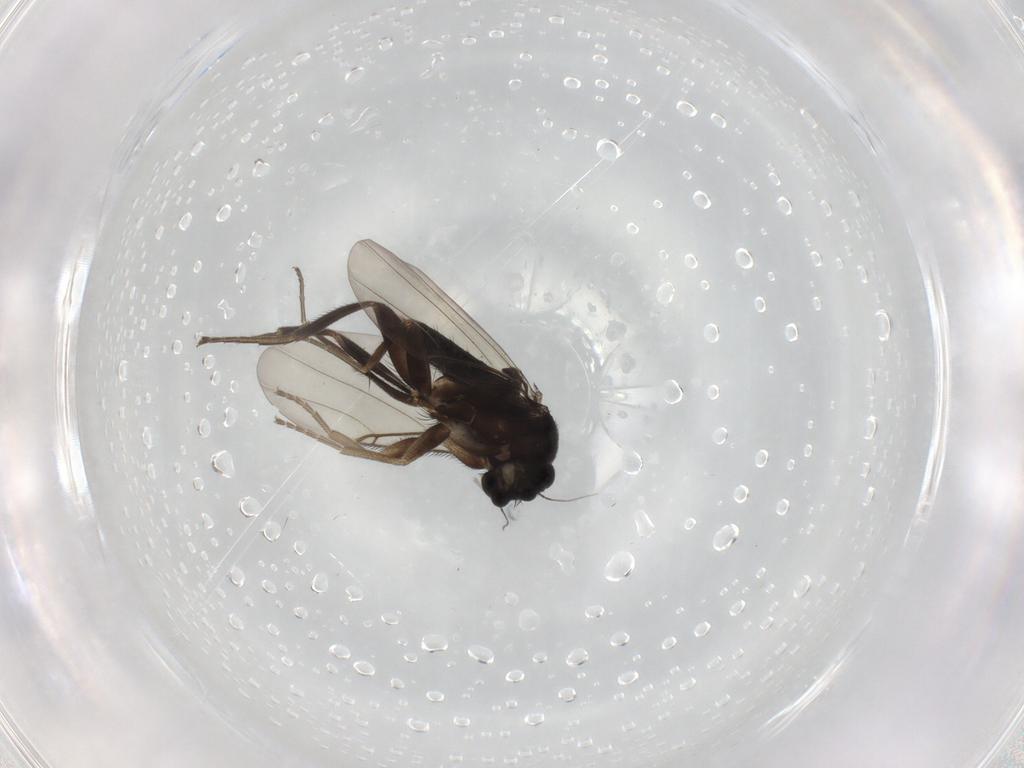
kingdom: Animalia
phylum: Arthropoda
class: Insecta
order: Diptera
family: Phoridae
